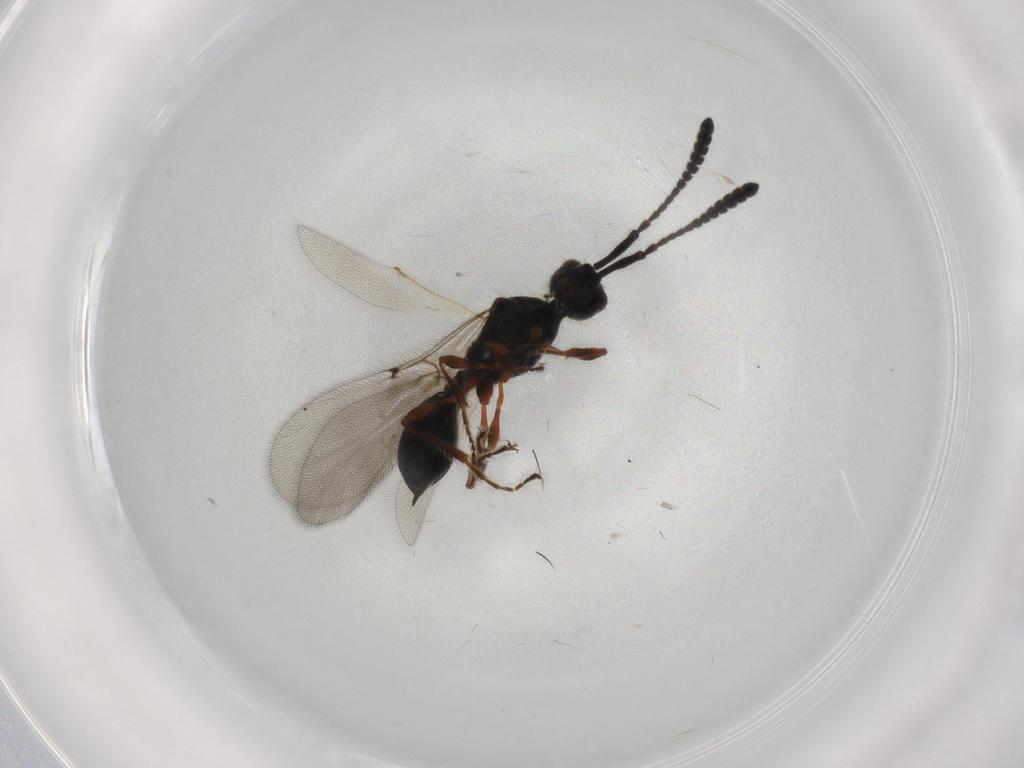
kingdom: Animalia
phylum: Arthropoda
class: Insecta
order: Hymenoptera
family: Diapriidae
